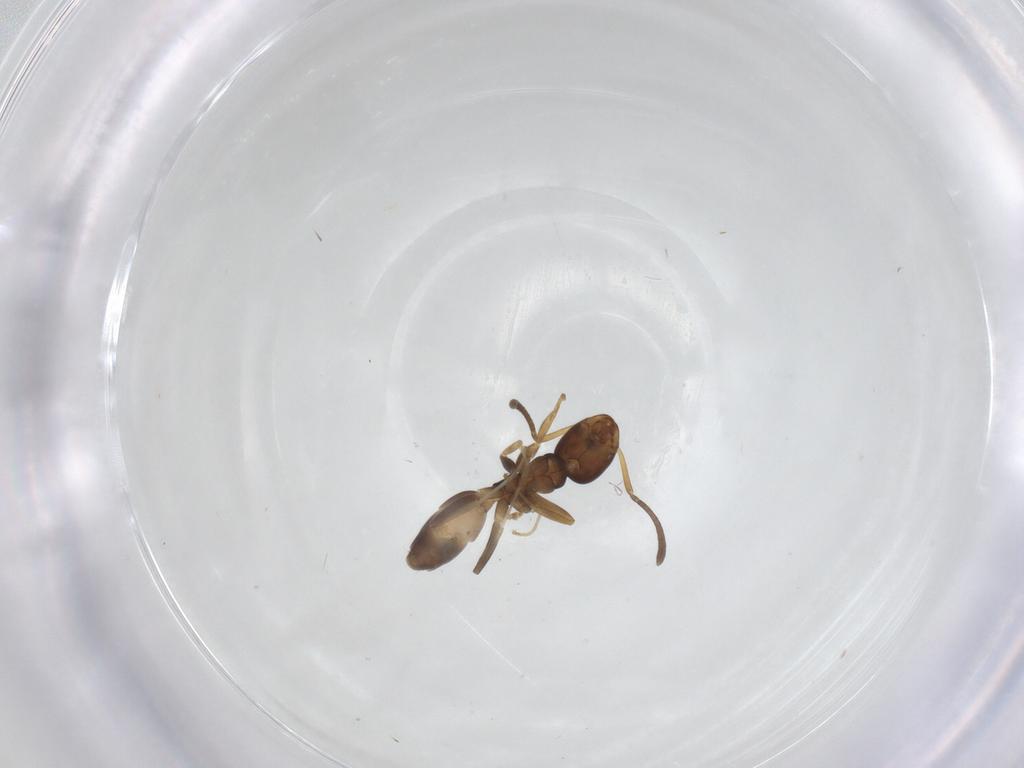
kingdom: Animalia
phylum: Arthropoda
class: Insecta
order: Hymenoptera
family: Formicidae
